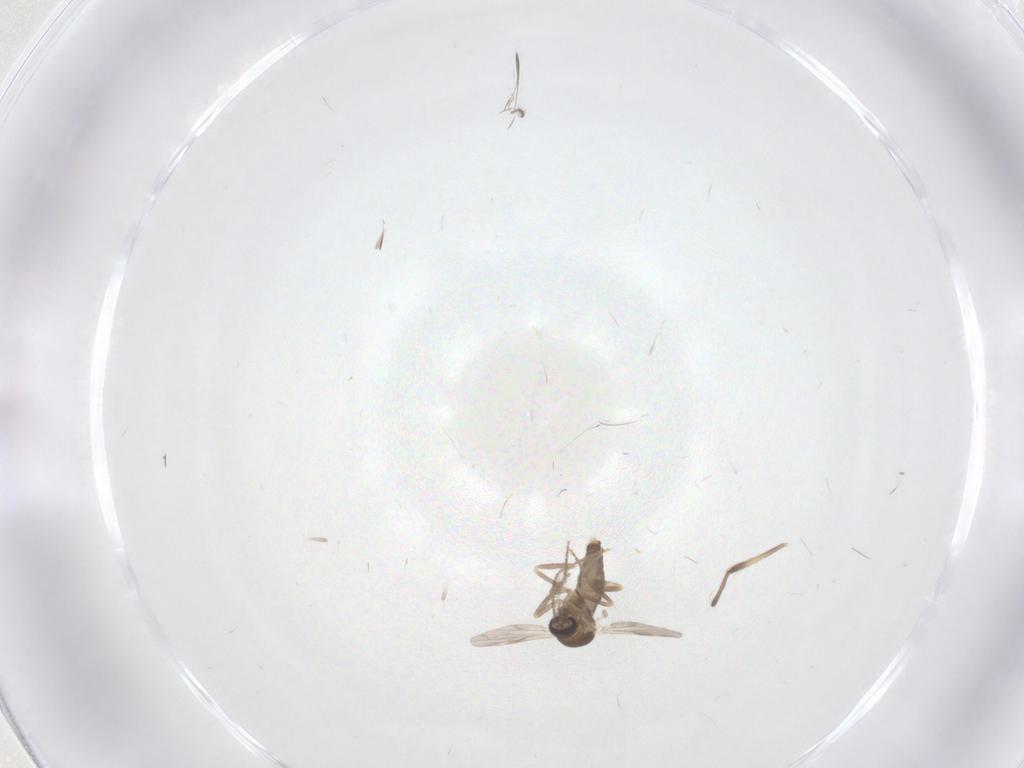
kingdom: Animalia
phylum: Arthropoda
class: Insecta
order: Diptera
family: Ceratopogonidae
